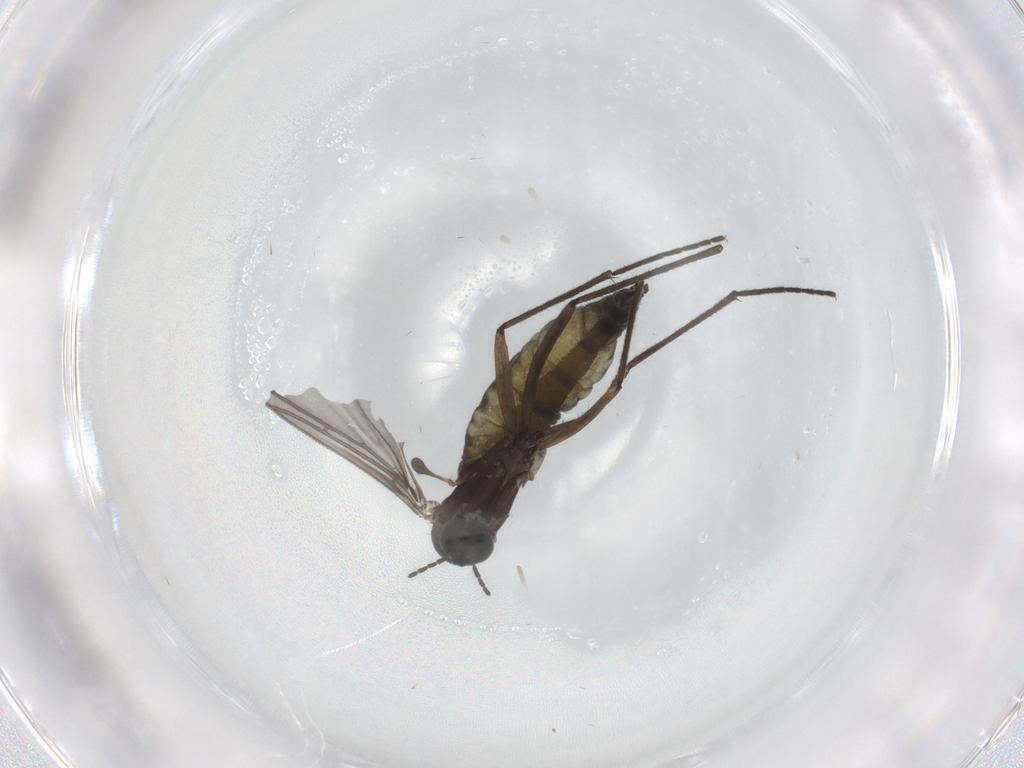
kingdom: Animalia
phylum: Arthropoda
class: Insecta
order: Diptera
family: Sciaridae
